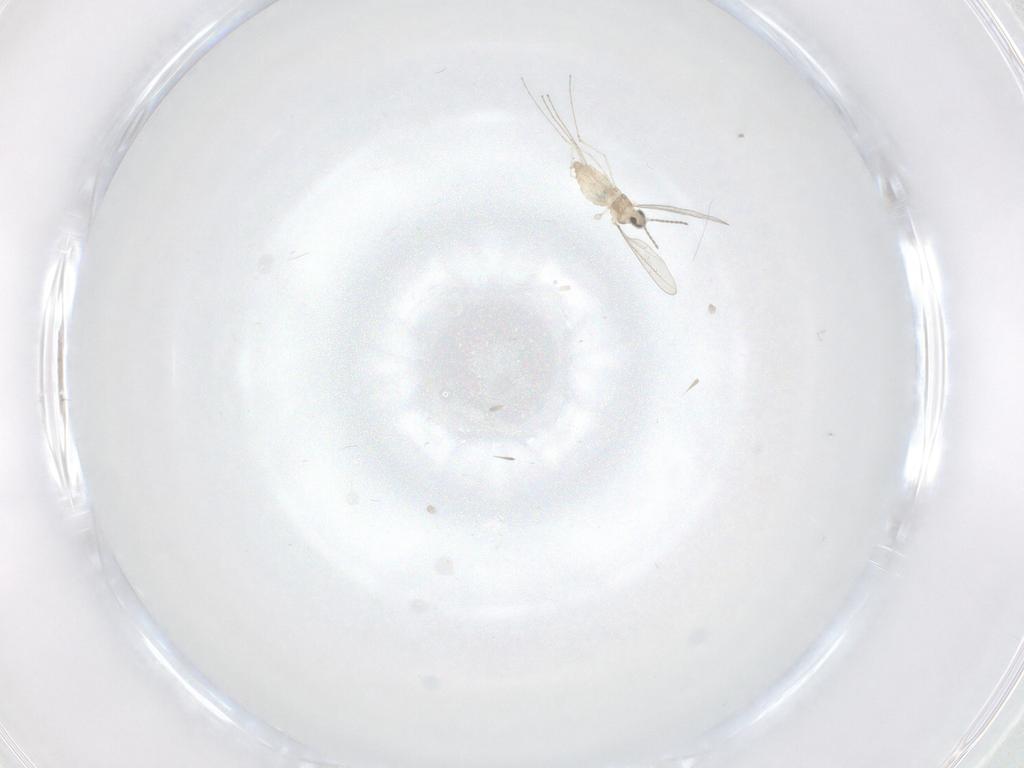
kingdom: Animalia
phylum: Arthropoda
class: Insecta
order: Diptera
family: Cecidomyiidae
